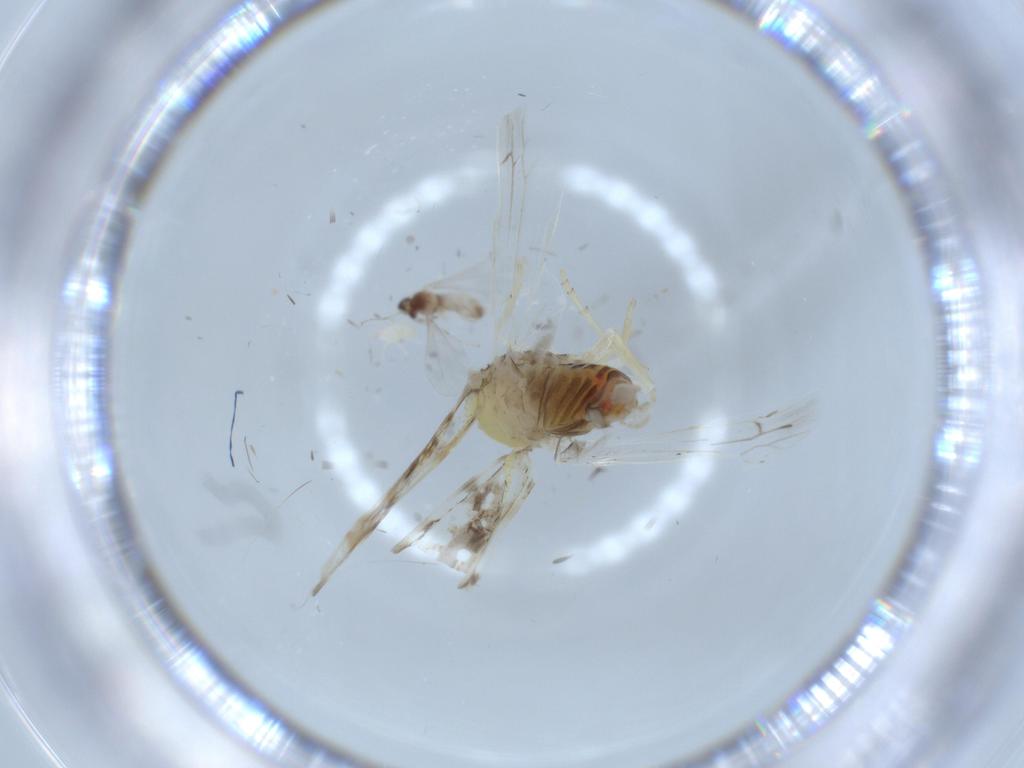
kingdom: Animalia
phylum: Arthropoda
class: Insecta
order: Hemiptera
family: Derbidae
